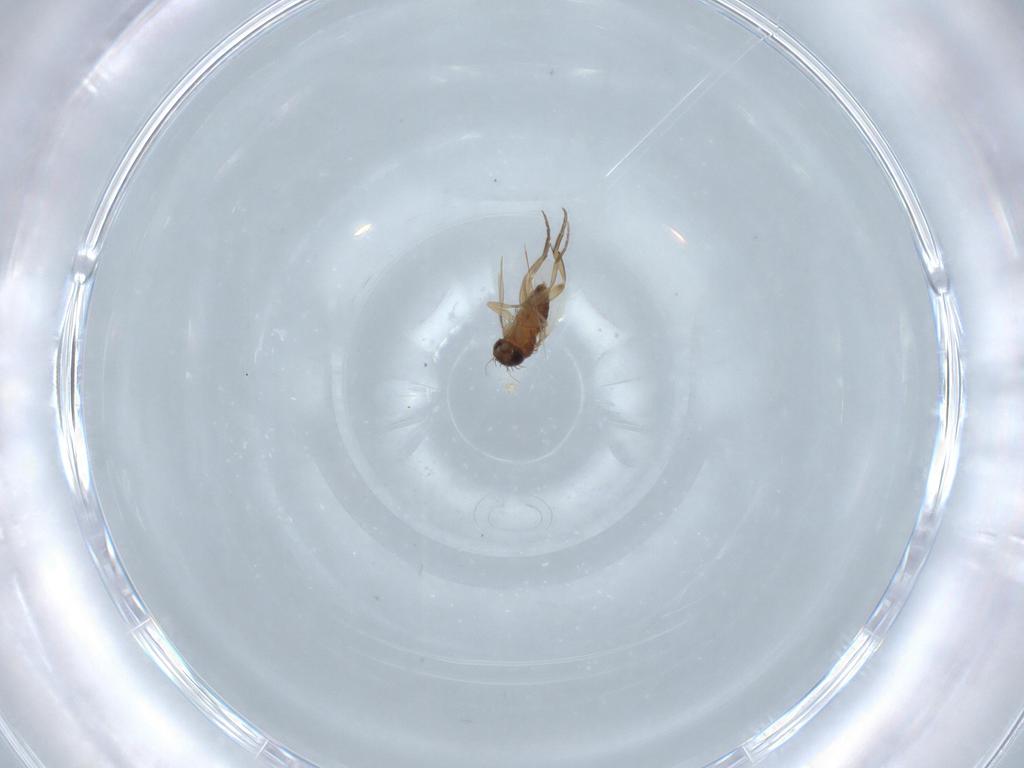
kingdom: Animalia
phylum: Arthropoda
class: Insecta
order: Diptera
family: Phoridae
